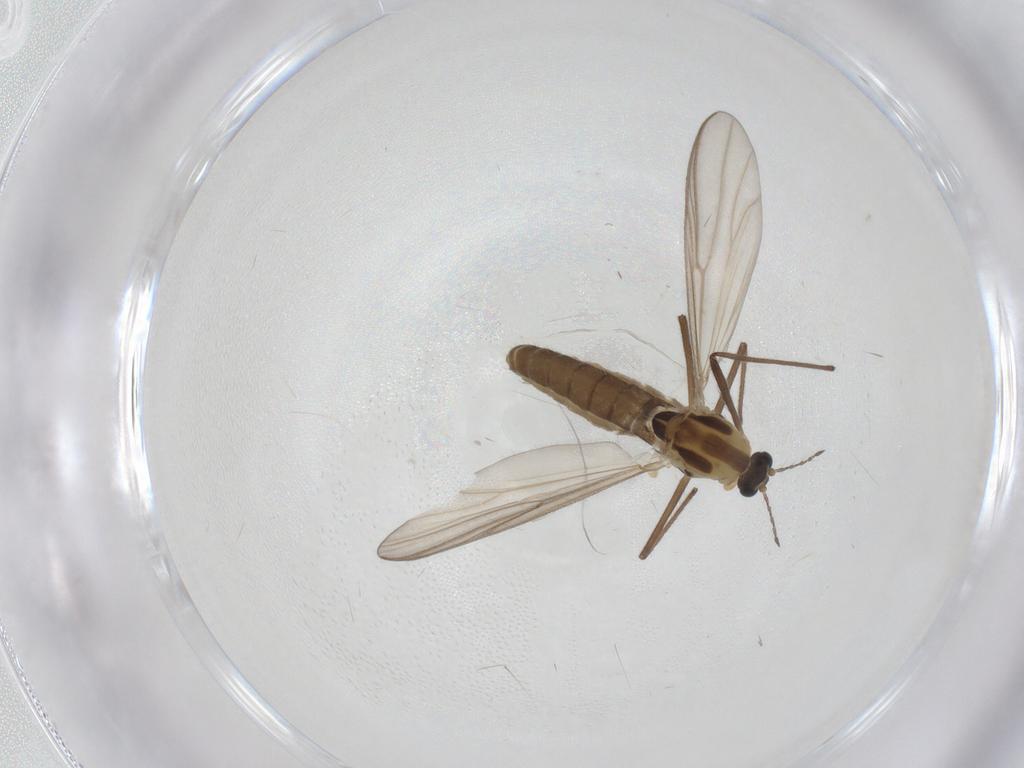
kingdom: Animalia
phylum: Arthropoda
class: Insecta
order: Diptera
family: Chironomidae
